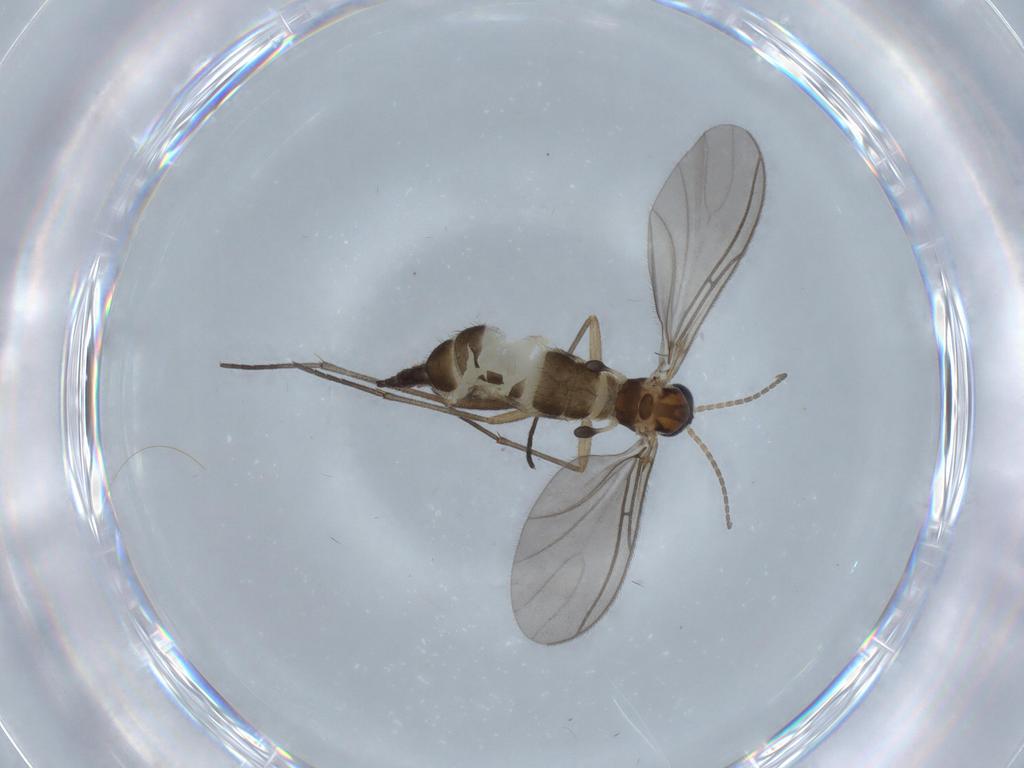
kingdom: Animalia
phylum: Arthropoda
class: Insecta
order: Diptera
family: Sciaridae
